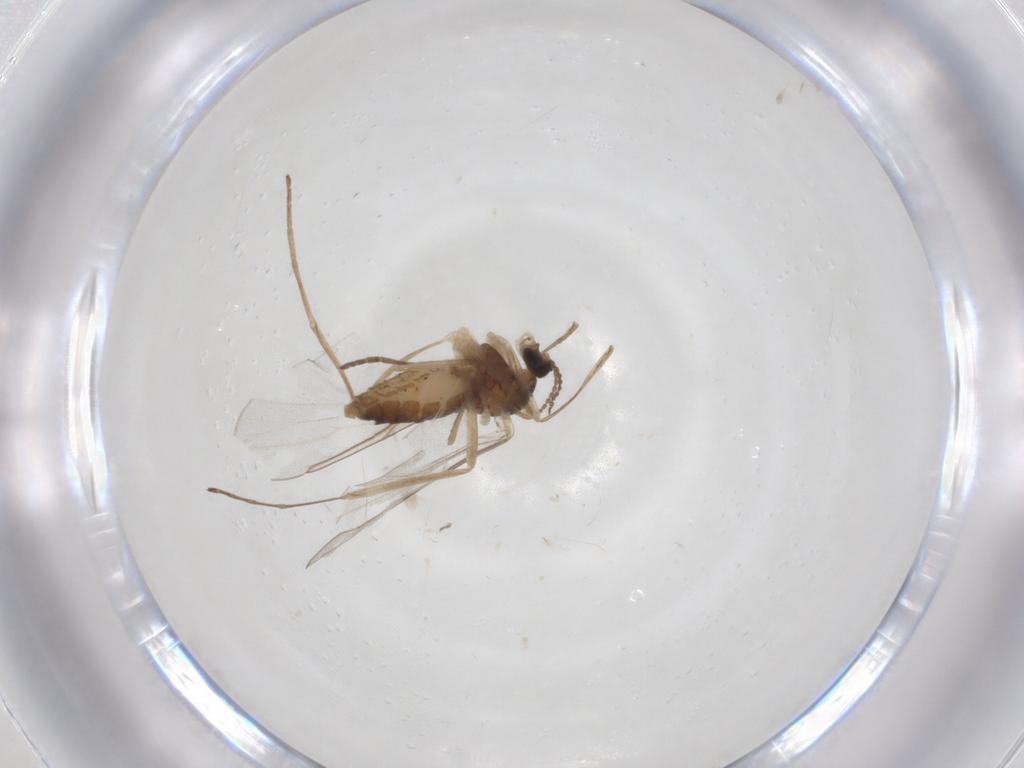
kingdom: Animalia
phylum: Arthropoda
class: Insecta
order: Diptera
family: Cecidomyiidae
